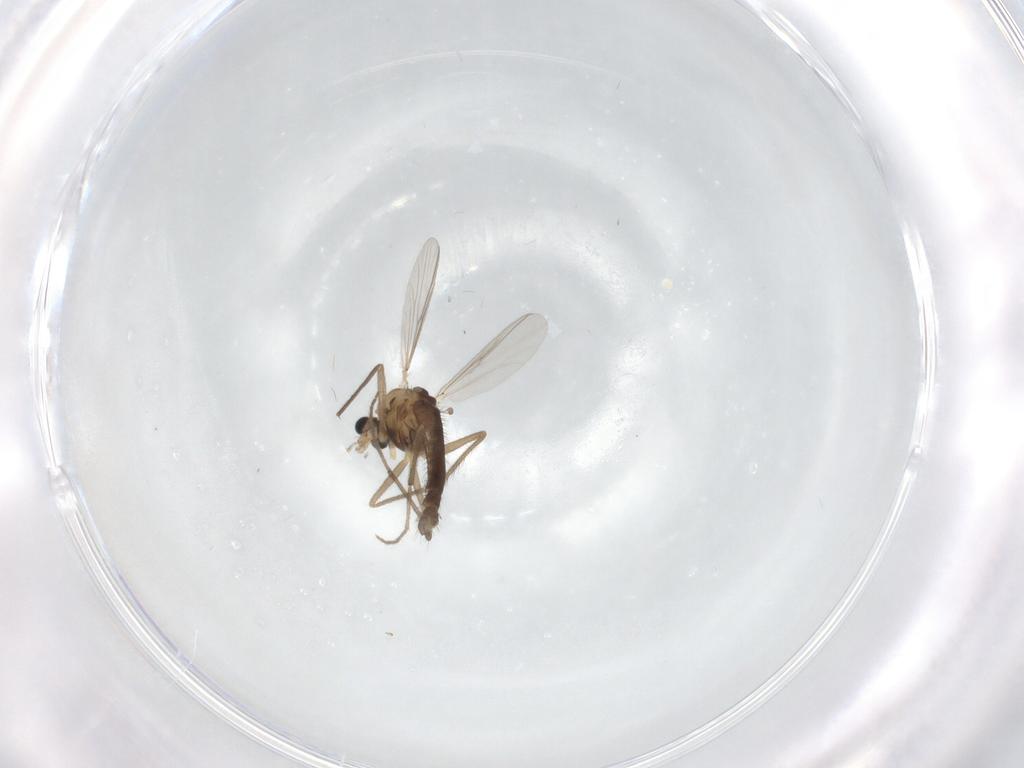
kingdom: Animalia
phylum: Arthropoda
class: Insecta
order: Diptera
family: Chironomidae
